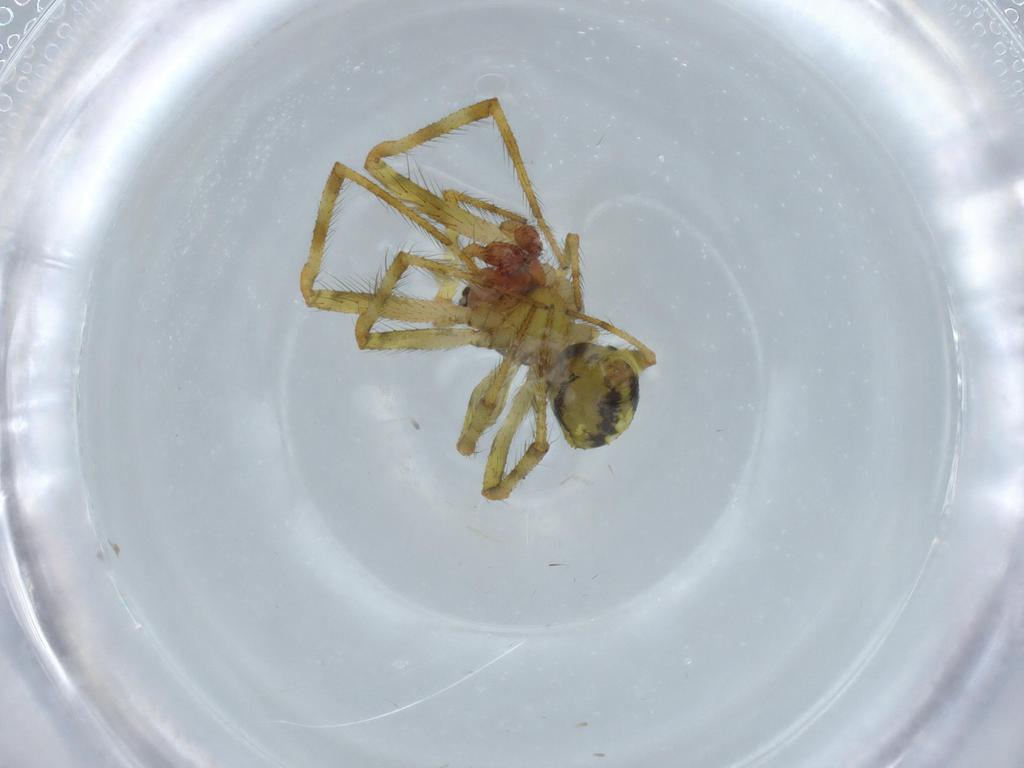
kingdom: Animalia
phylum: Arthropoda
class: Arachnida
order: Araneae
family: Theridiidae
